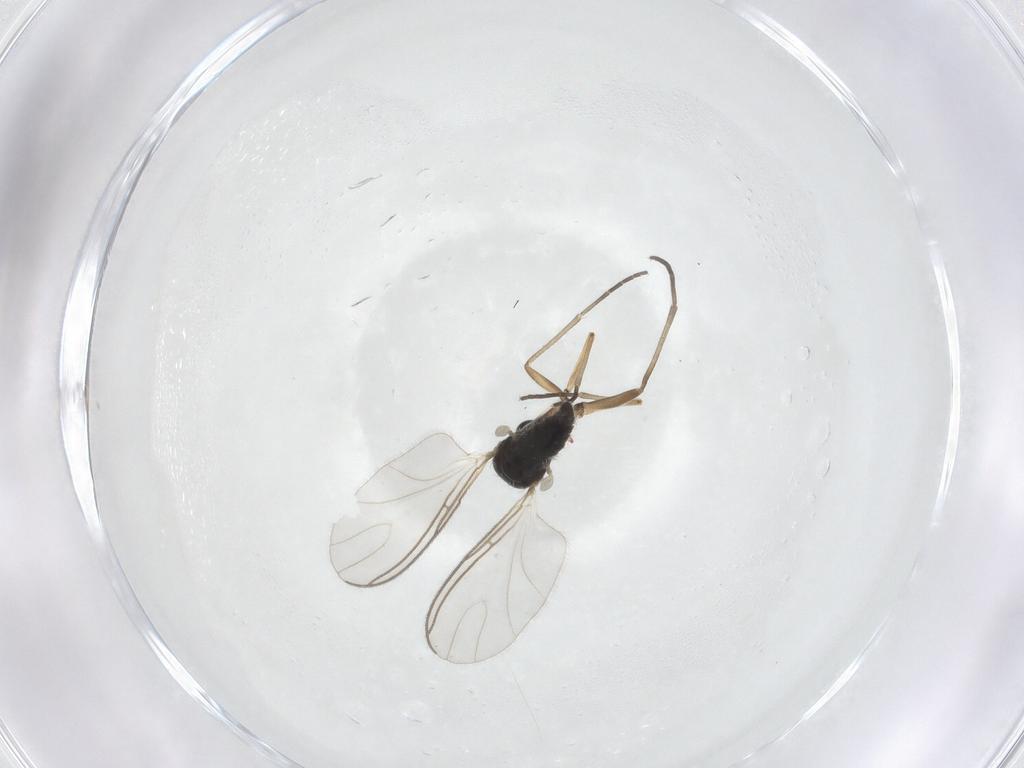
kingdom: Animalia
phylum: Arthropoda
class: Insecta
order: Diptera
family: Sciaridae
